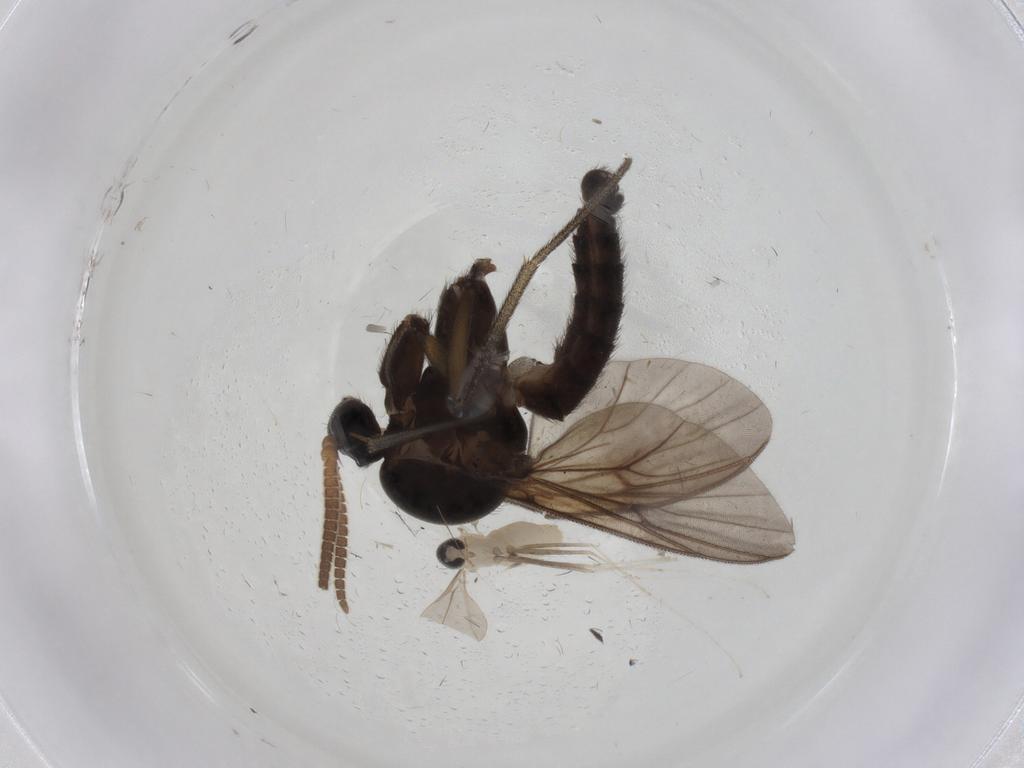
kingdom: Animalia
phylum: Arthropoda
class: Insecta
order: Diptera
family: Mycetophilidae
